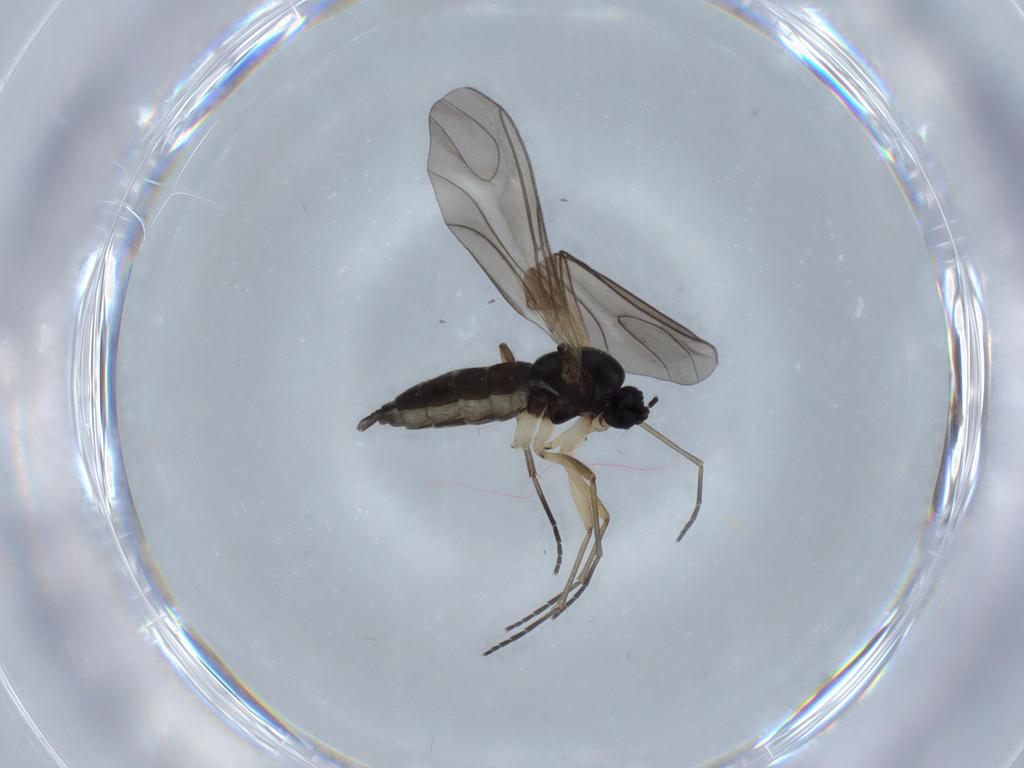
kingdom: Animalia
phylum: Arthropoda
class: Insecta
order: Diptera
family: Sciaridae
